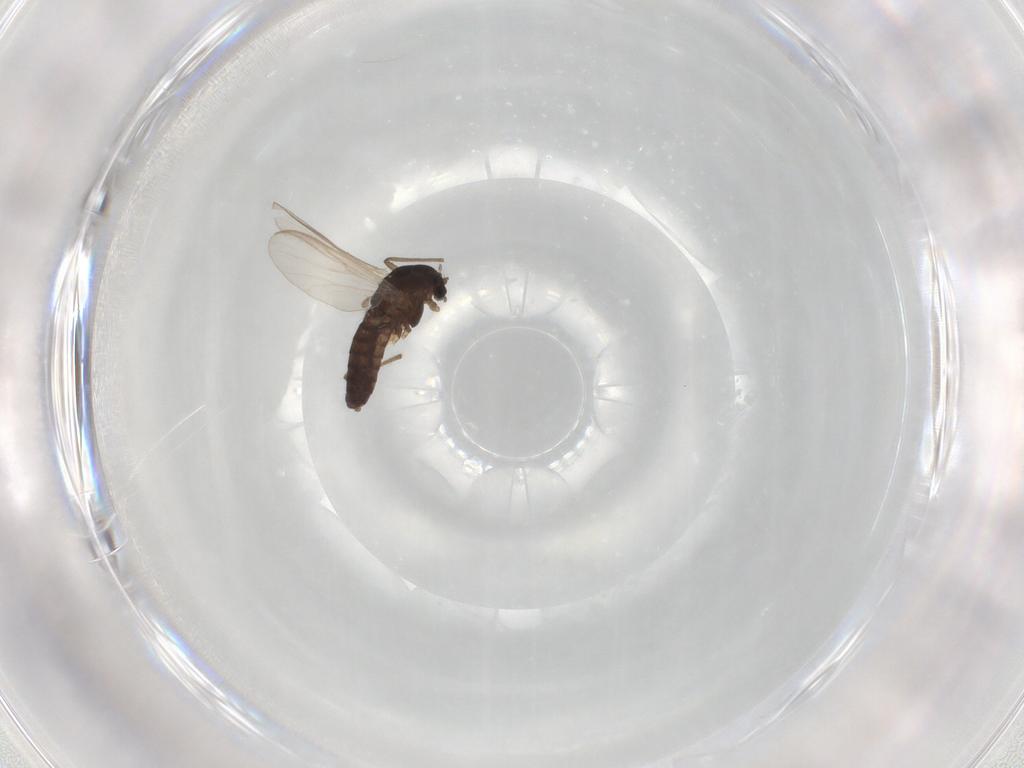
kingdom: Animalia
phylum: Arthropoda
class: Insecta
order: Diptera
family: Chironomidae
